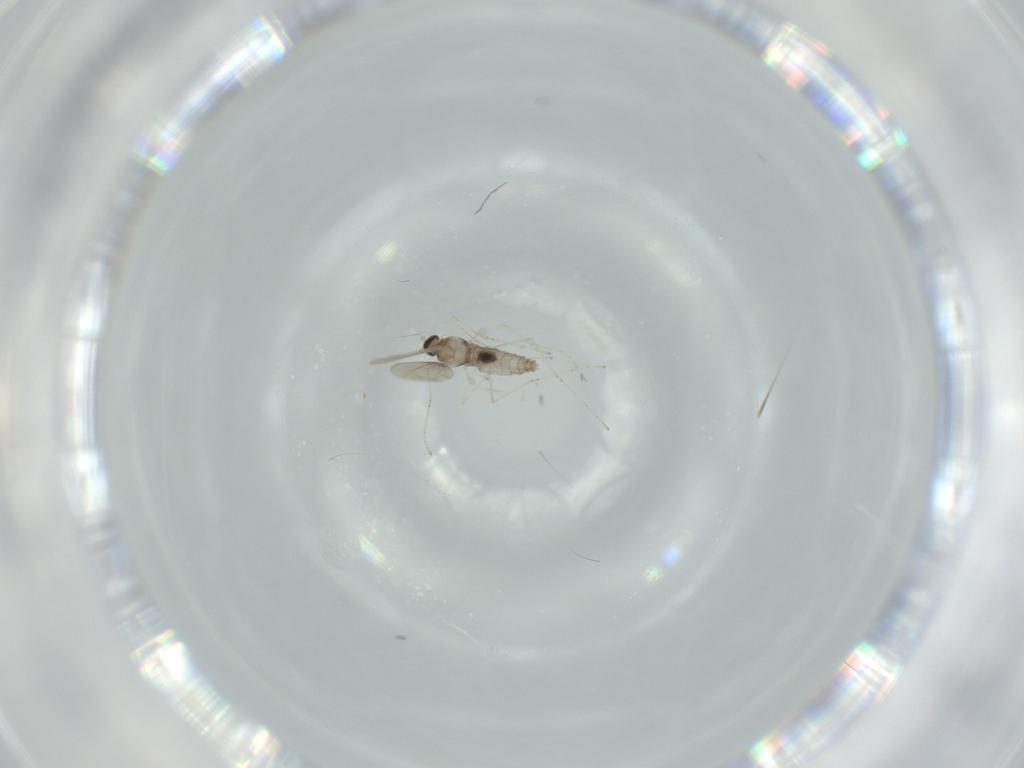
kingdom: Animalia
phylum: Arthropoda
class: Insecta
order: Diptera
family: Cecidomyiidae
